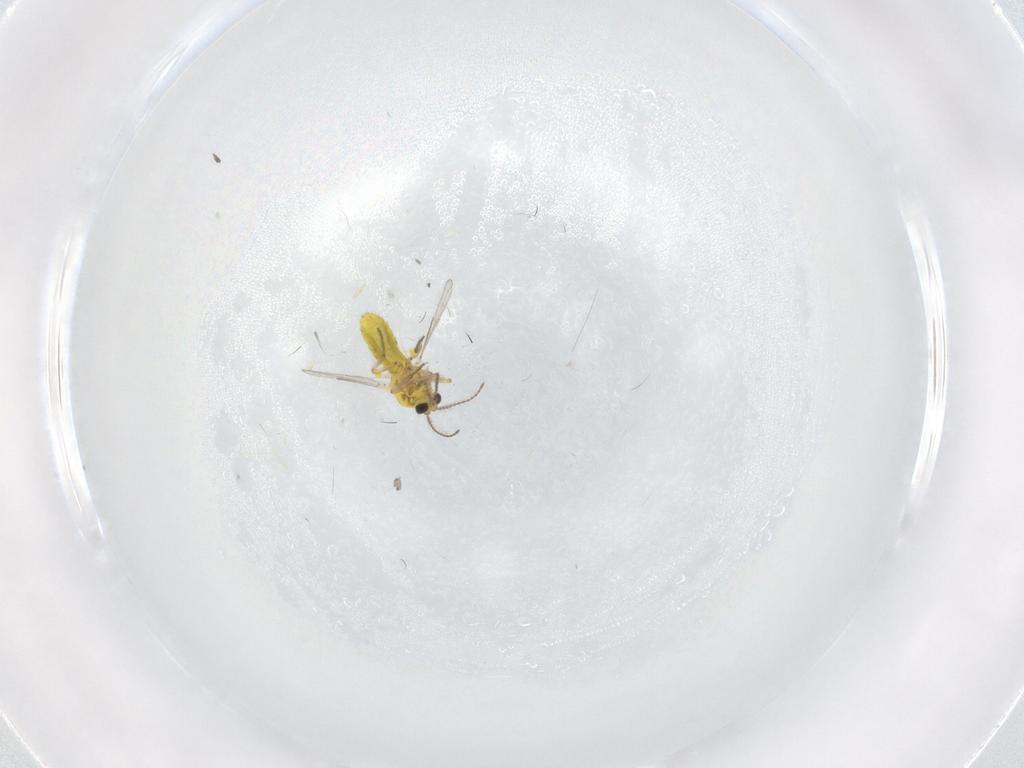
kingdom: Animalia
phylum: Arthropoda
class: Insecta
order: Diptera
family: Ceratopogonidae
